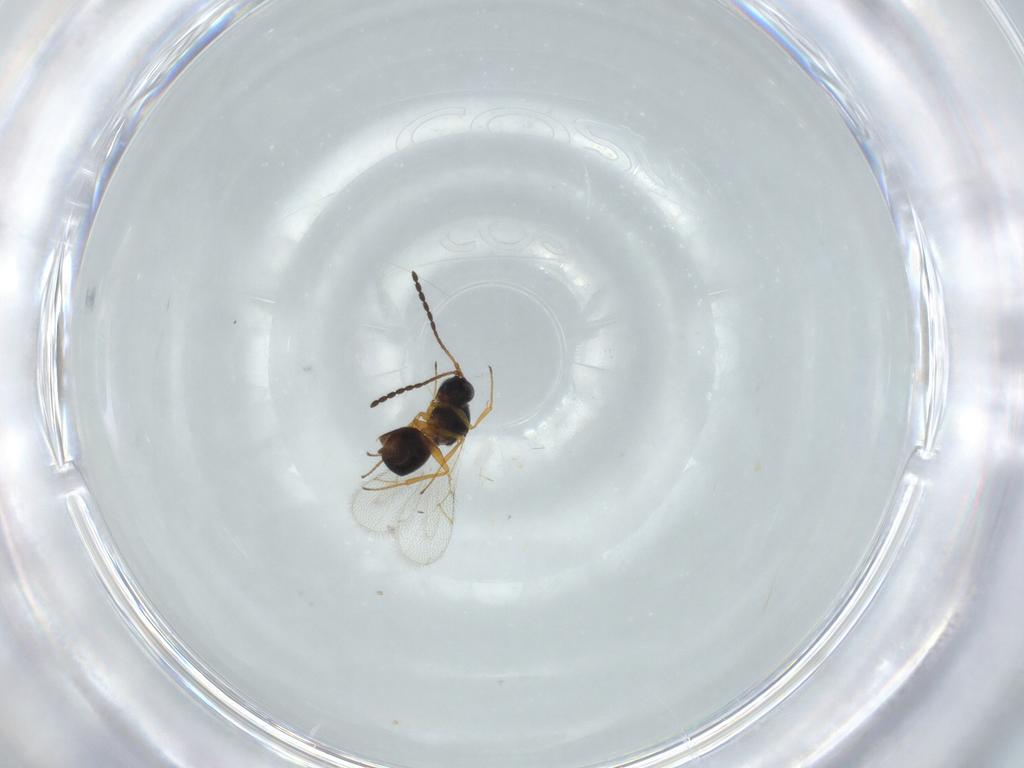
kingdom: Animalia
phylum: Arthropoda
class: Insecta
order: Hymenoptera
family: Figitidae
